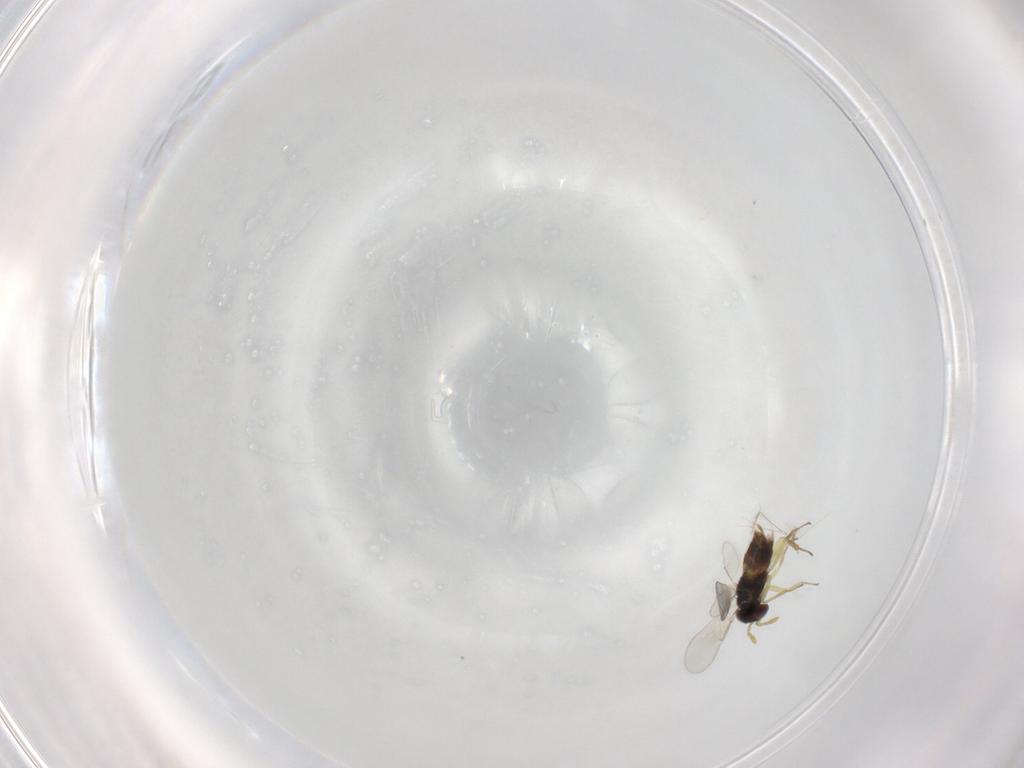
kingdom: Animalia
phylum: Arthropoda
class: Insecta
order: Hymenoptera
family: Aphelinidae
